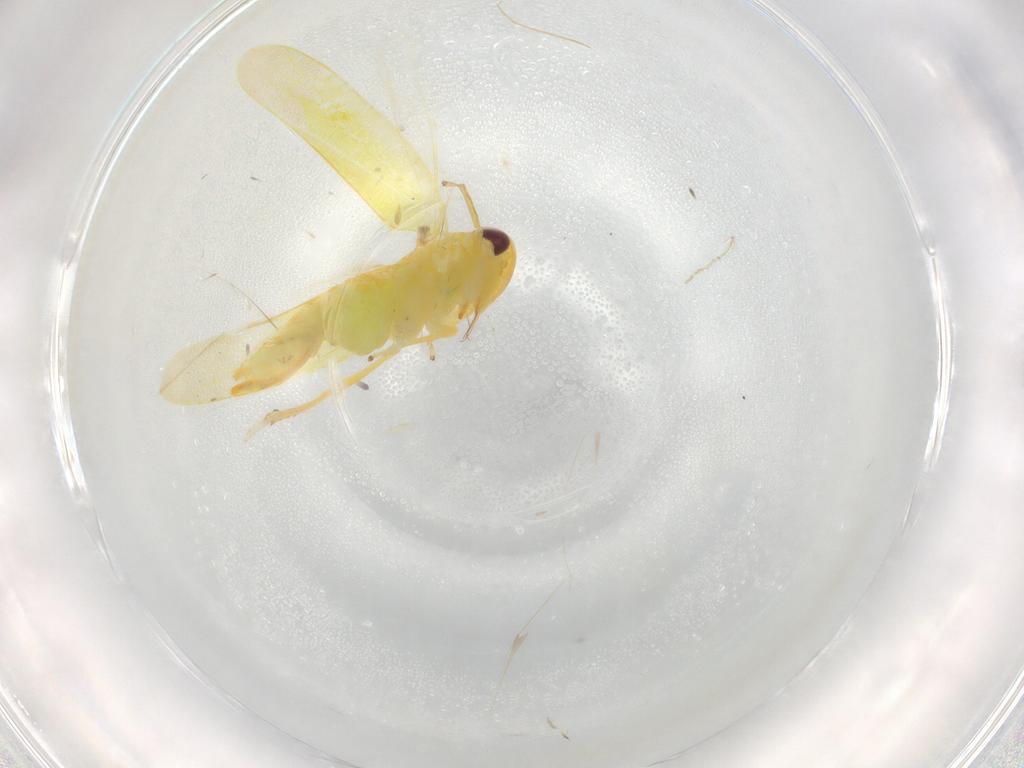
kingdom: Animalia
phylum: Arthropoda
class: Insecta
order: Hemiptera
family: Cicadellidae
